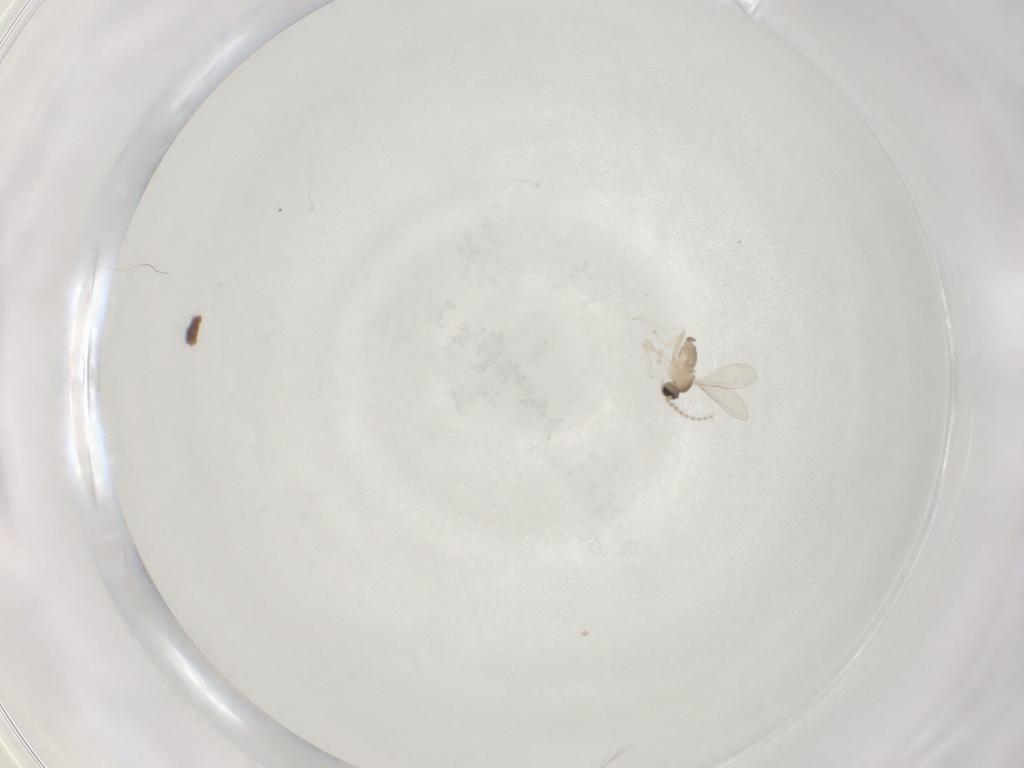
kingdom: Animalia
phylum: Arthropoda
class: Insecta
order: Diptera
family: Cecidomyiidae
